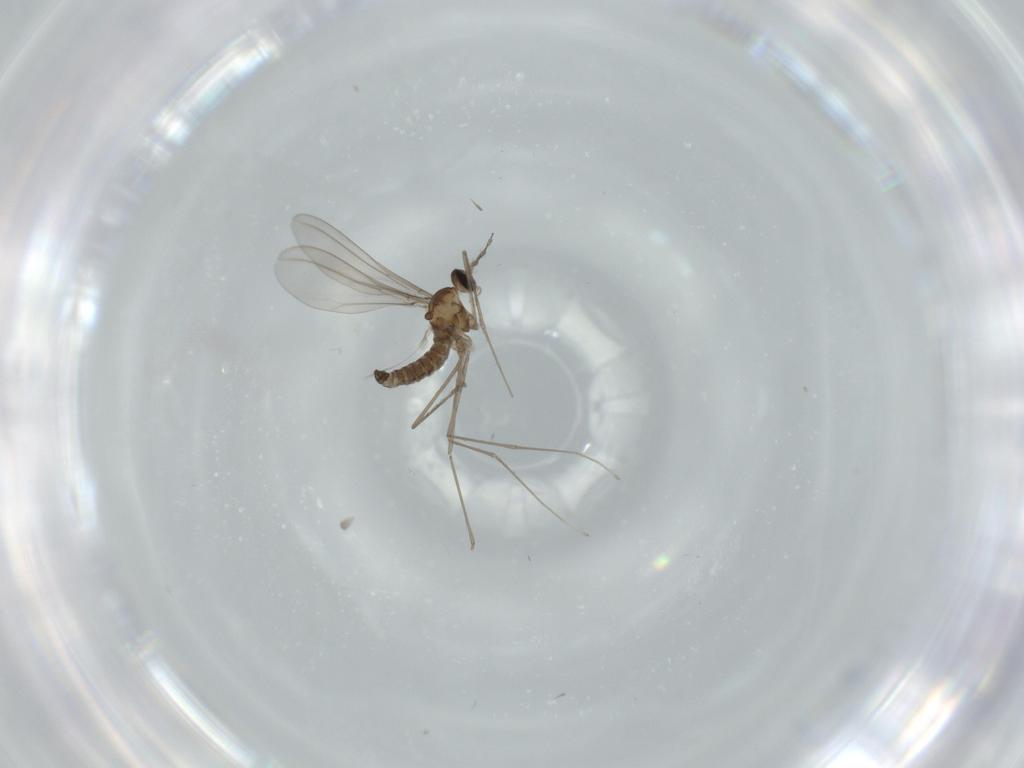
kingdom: Animalia
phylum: Arthropoda
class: Insecta
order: Diptera
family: Cecidomyiidae
